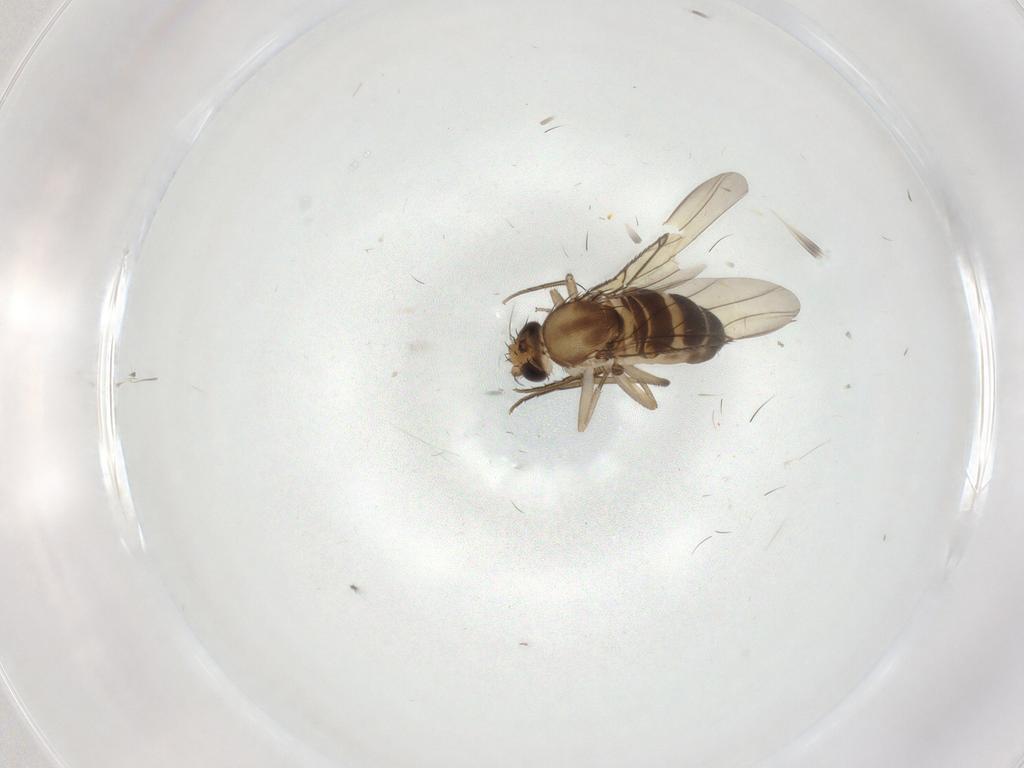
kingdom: Animalia
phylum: Arthropoda
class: Insecta
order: Diptera
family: Phoridae
